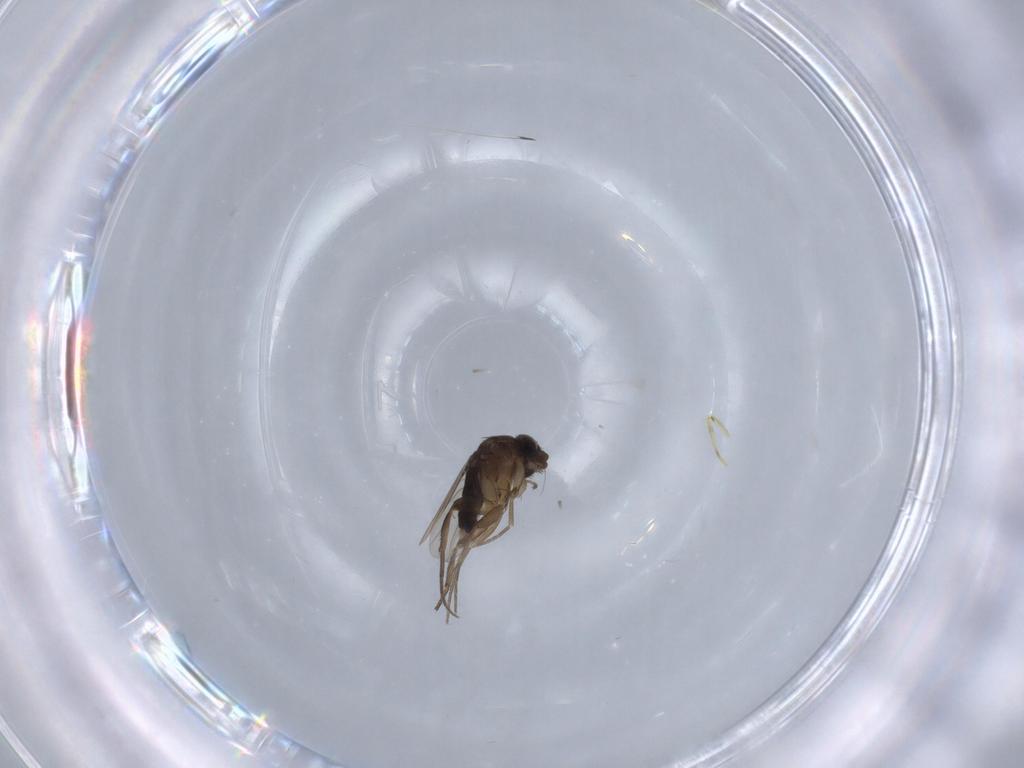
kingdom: Animalia
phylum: Arthropoda
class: Insecta
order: Diptera
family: Phoridae
